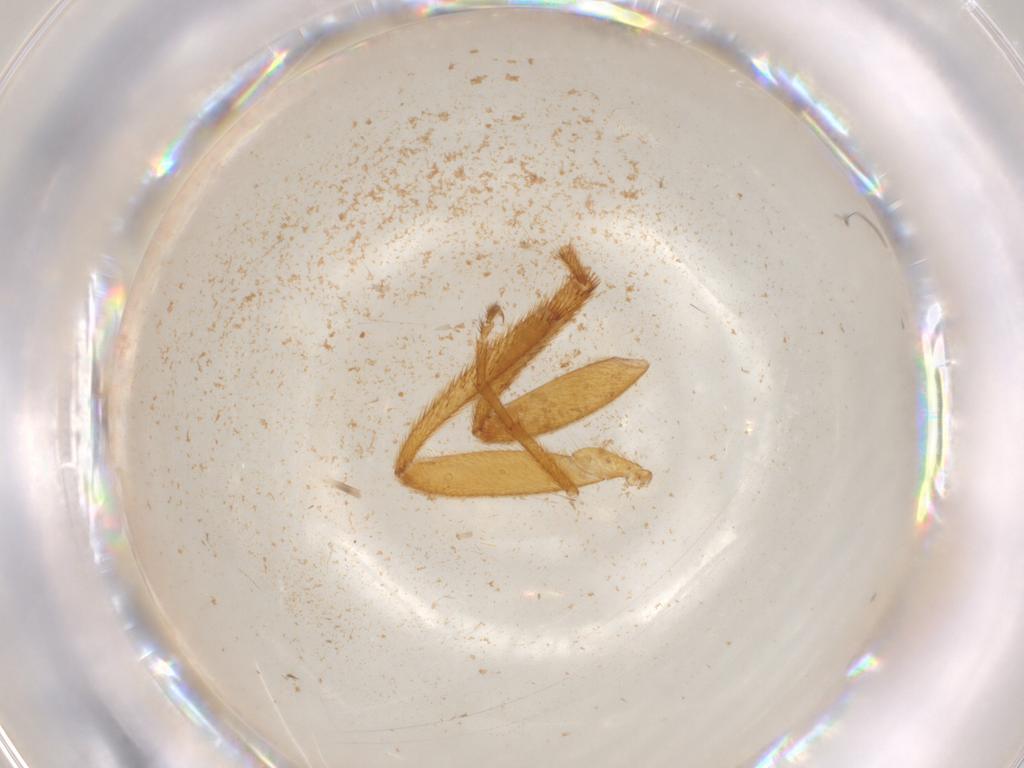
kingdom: Animalia
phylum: Arthropoda
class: Insecta
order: Coleoptera
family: Phengodidae
